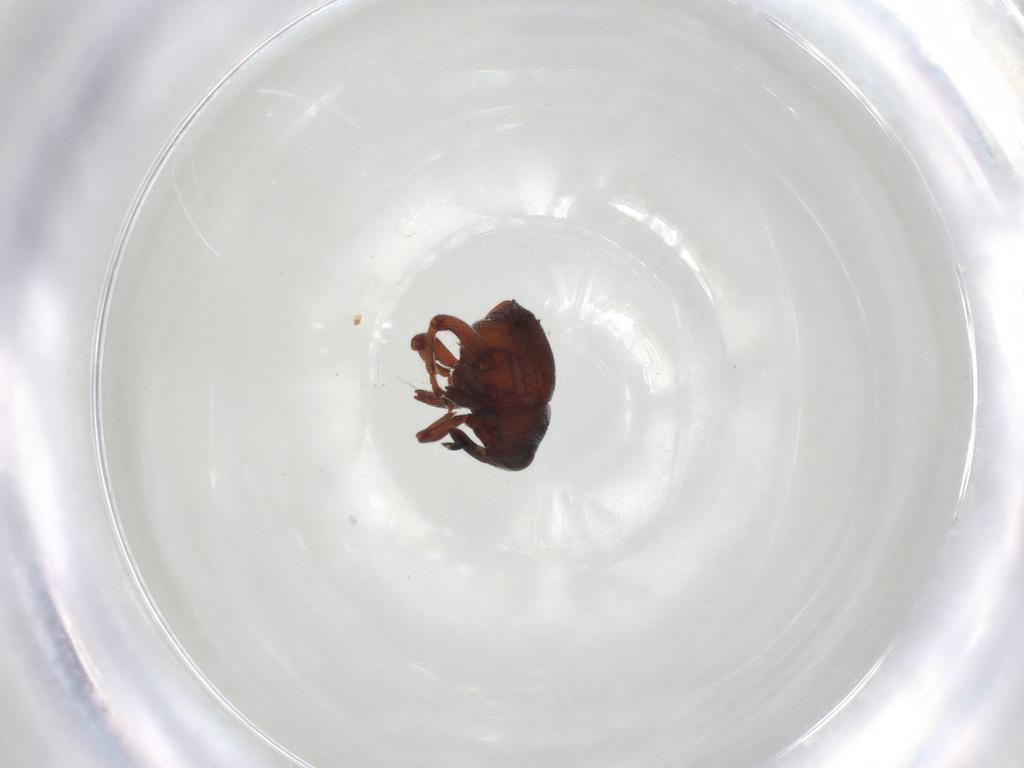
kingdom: Animalia
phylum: Arthropoda
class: Insecta
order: Coleoptera
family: Curculionidae
